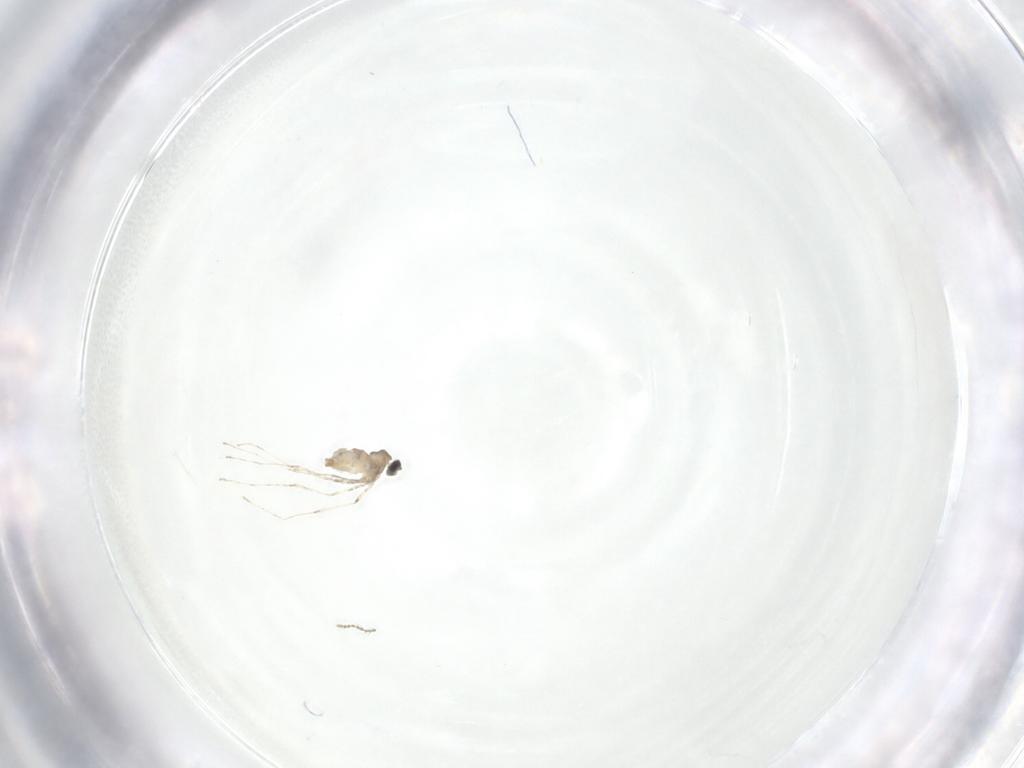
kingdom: Animalia
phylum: Arthropoda
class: Insecta
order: Diptera
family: Ceratopogonidae
